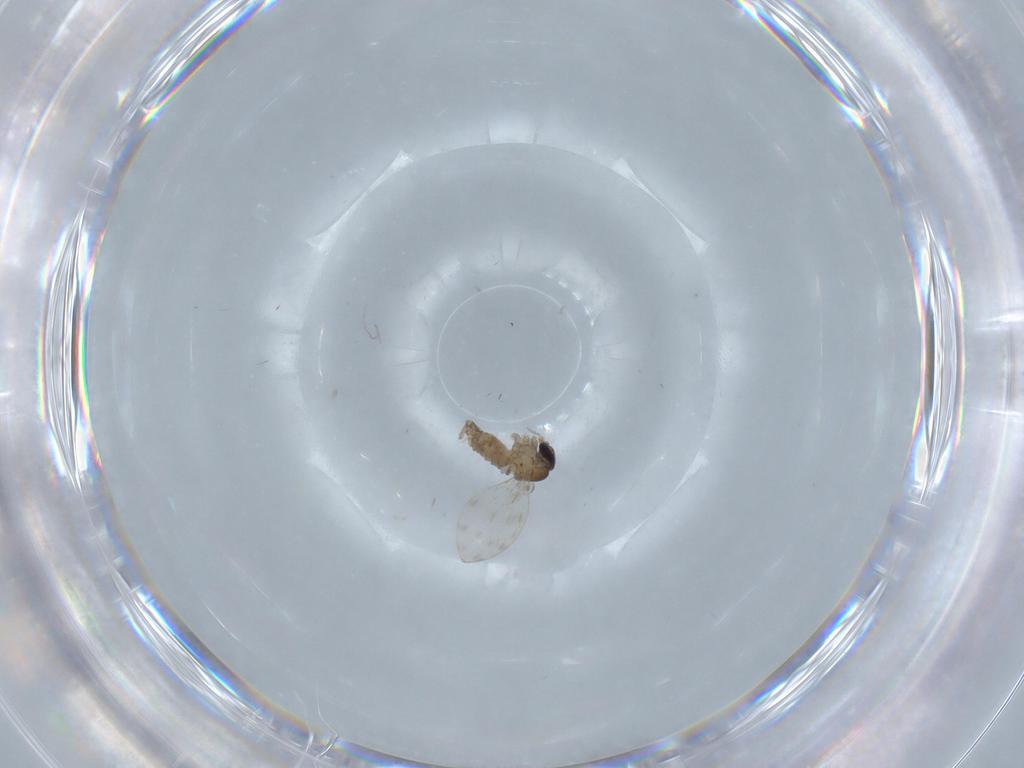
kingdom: Animalia
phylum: Arthropoda
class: Insecta
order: Diptera
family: Psychodidae
